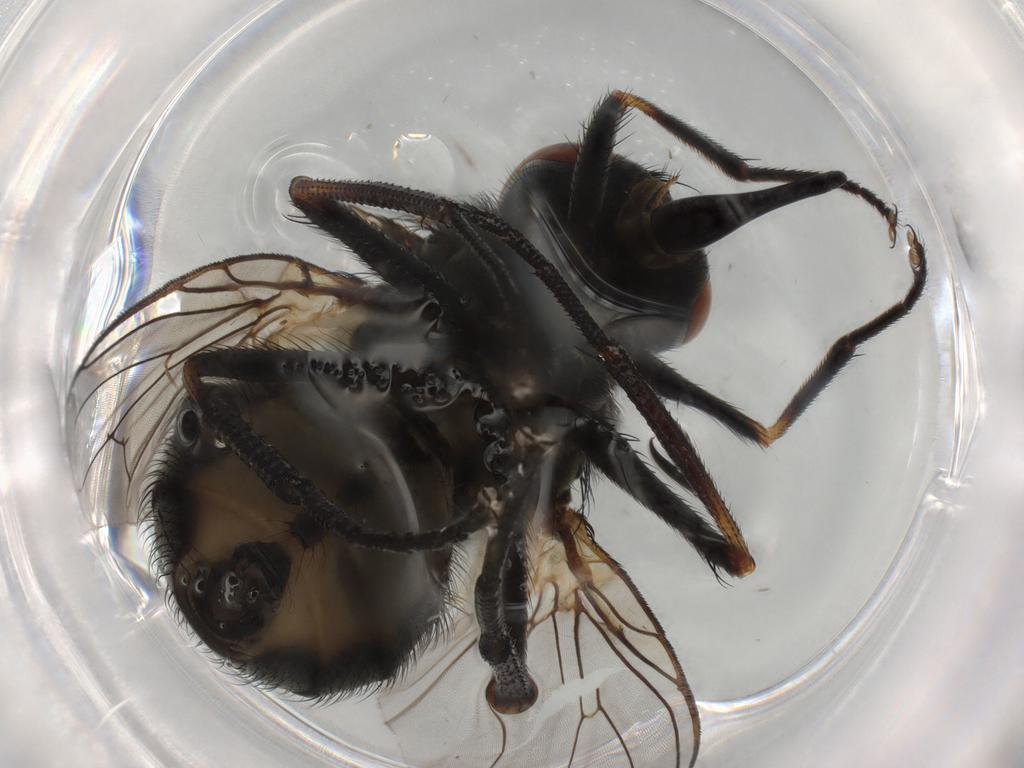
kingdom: Animalia
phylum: Arthropoda
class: Insecta
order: Diptera
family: Muscidae
